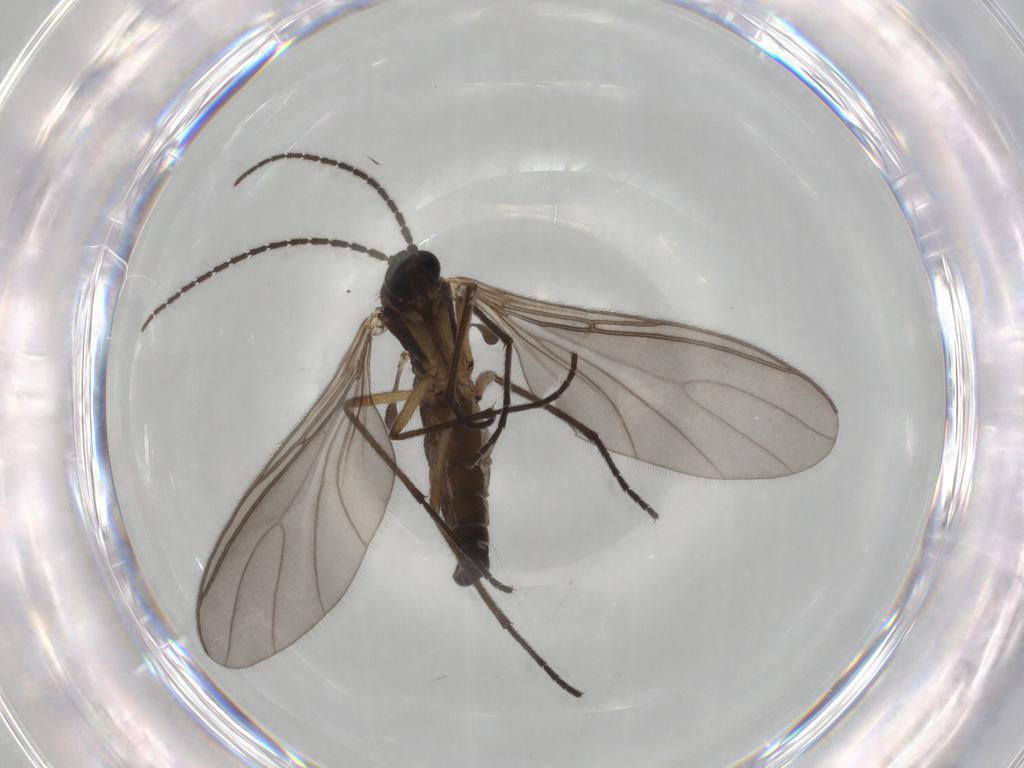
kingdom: Animalia
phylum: Arthropoda
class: Insecta
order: Diptera
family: Sciaridae
